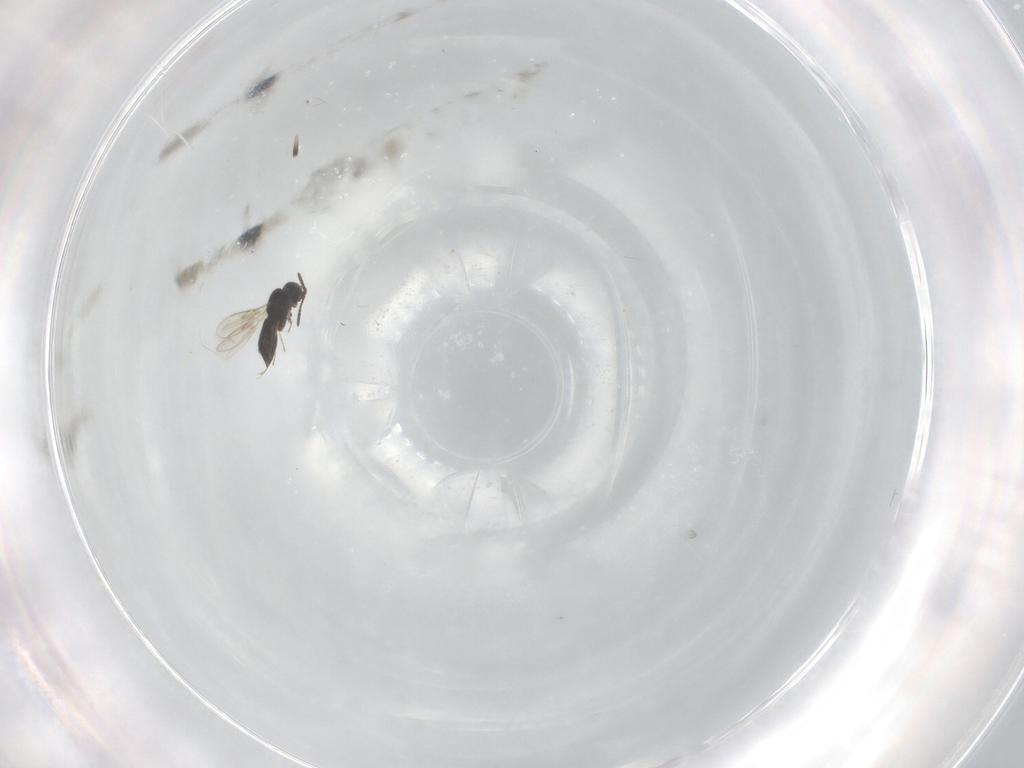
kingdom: Animalia
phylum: Arthropoda
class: Insecta
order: Hymenoptera
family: Scelionidae
